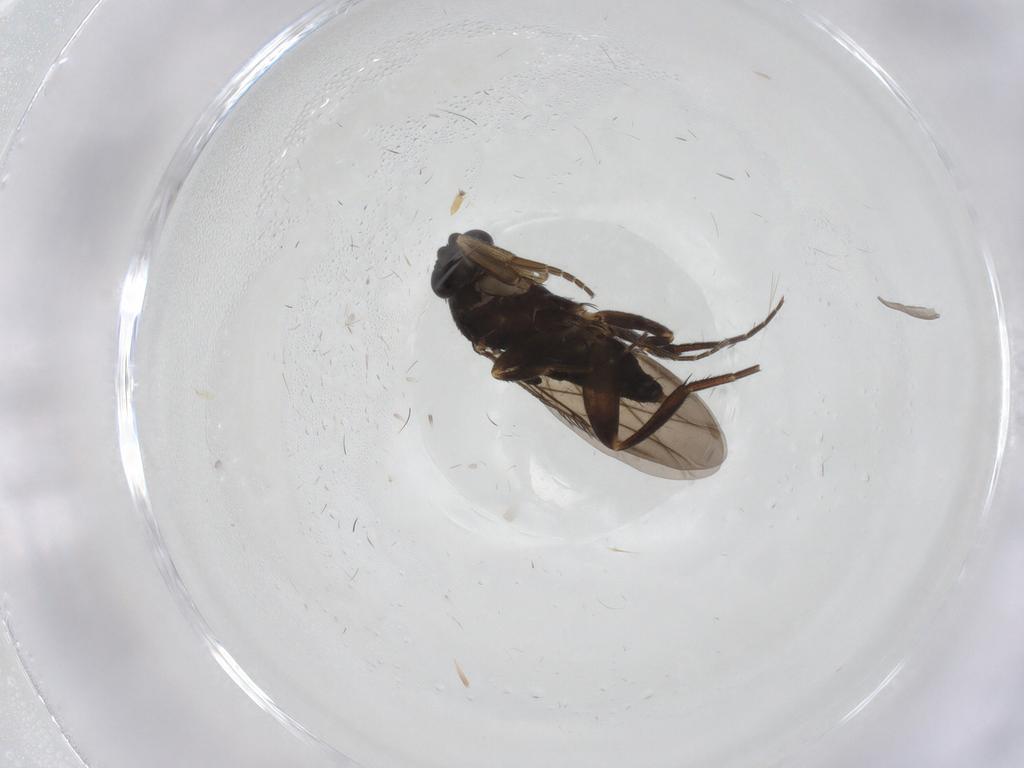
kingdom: Animalia
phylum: Arthropoda
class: Insecta
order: Diptera
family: Phoridae
